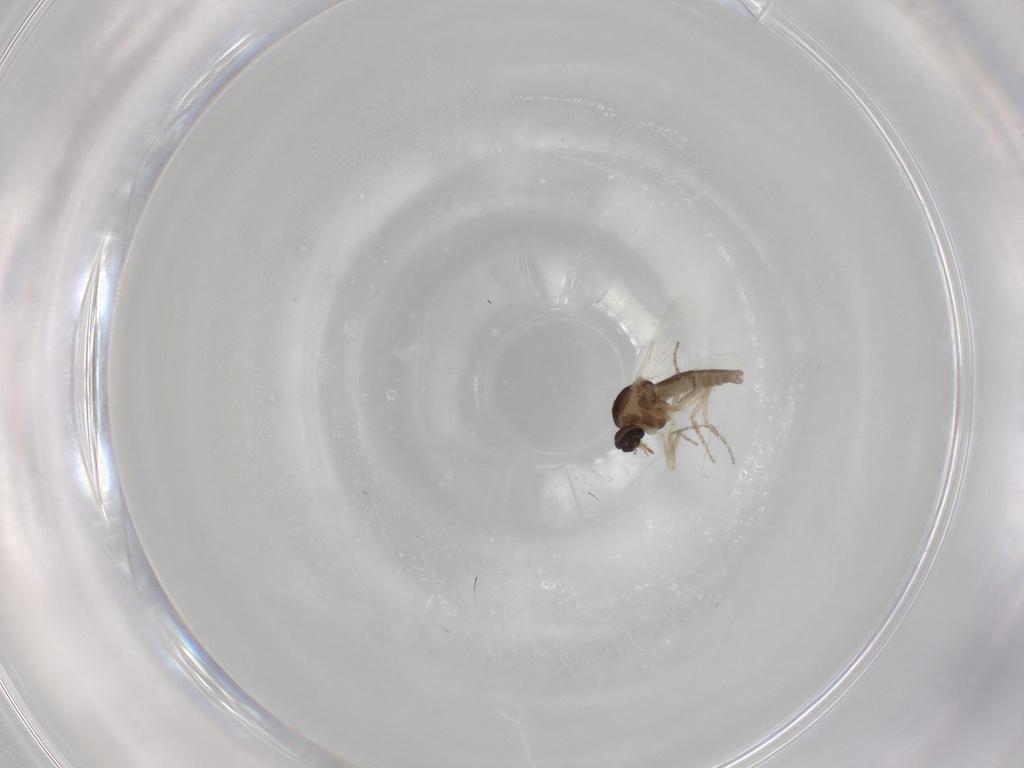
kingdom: Animalia
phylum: Arthropoda
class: Insecta
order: Diptera
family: Ceratopogonidae
